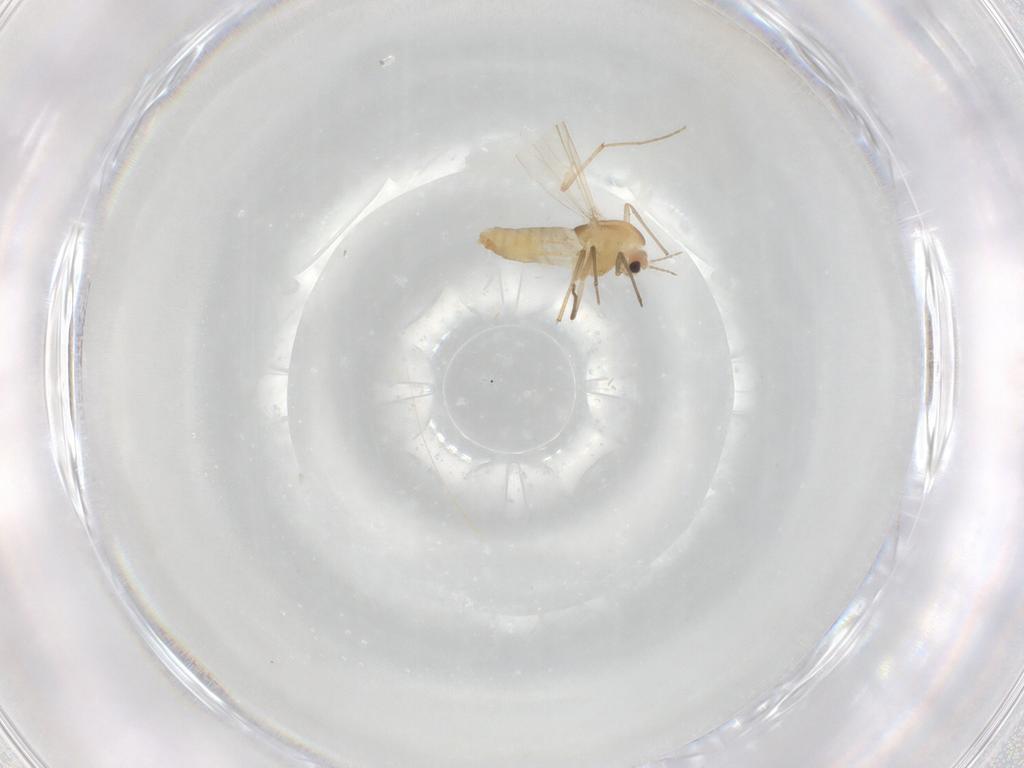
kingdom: Animalia
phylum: Arthropoda
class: Insecta
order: Diptera
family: Chironomidae
